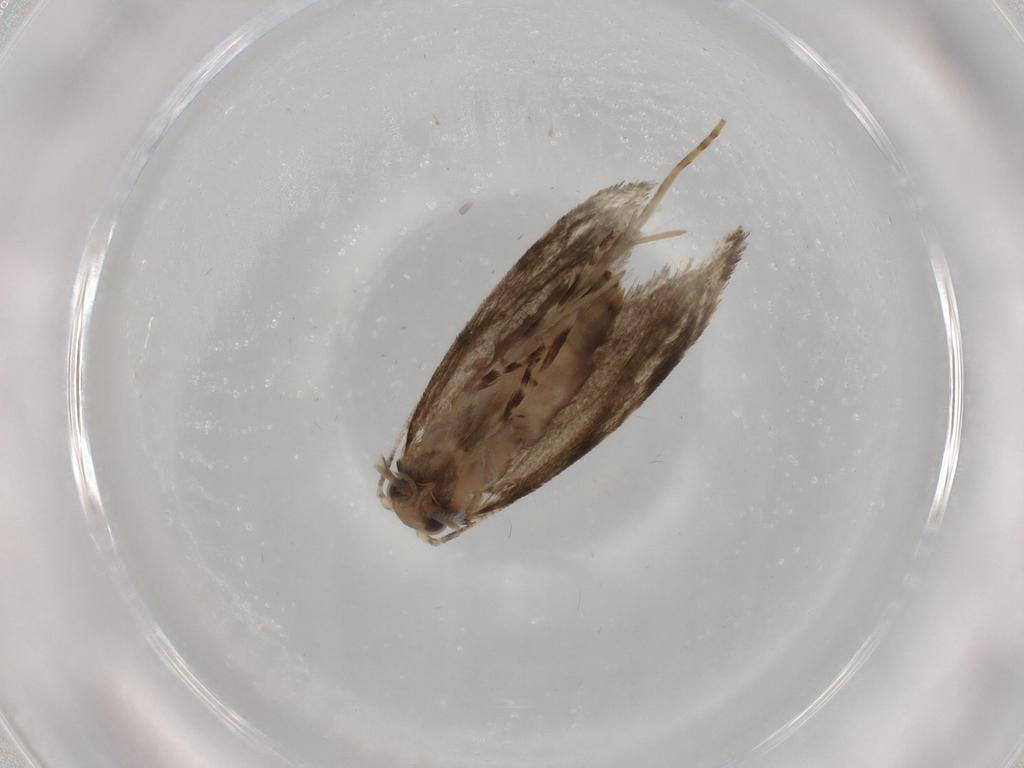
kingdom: Animalia
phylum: Arthropoda
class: Insecta
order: Lepidoptera
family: Tineidae
